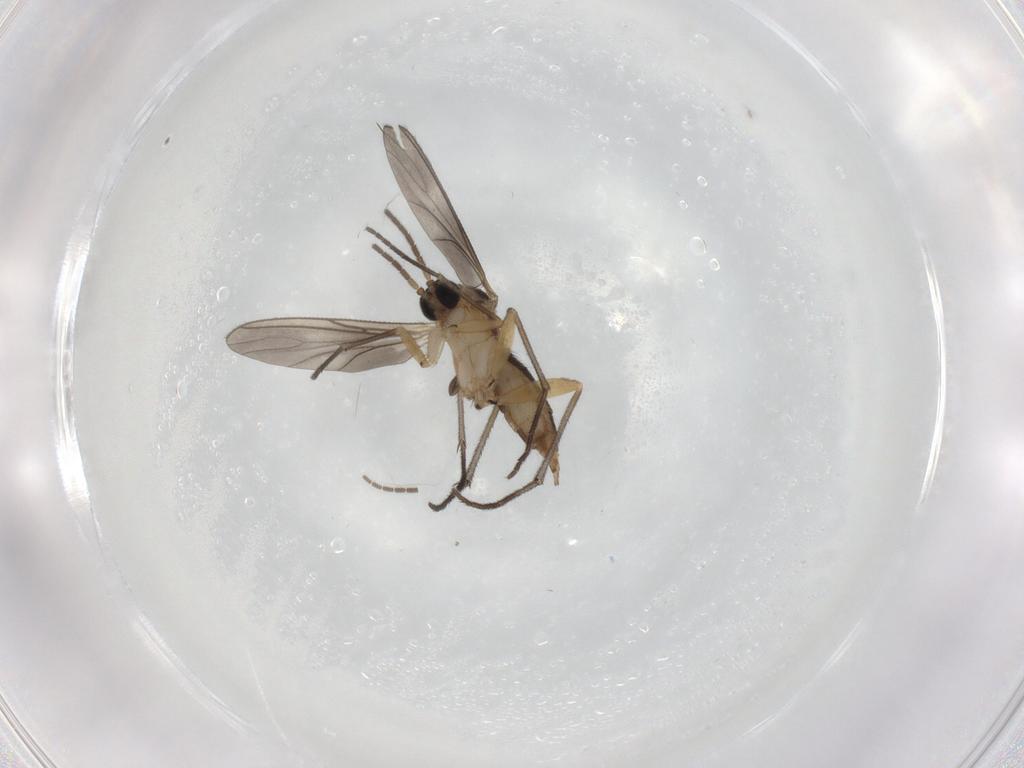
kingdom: Animalia
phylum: Arthropoda
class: Insecta
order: Diptera
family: Sciaridae
